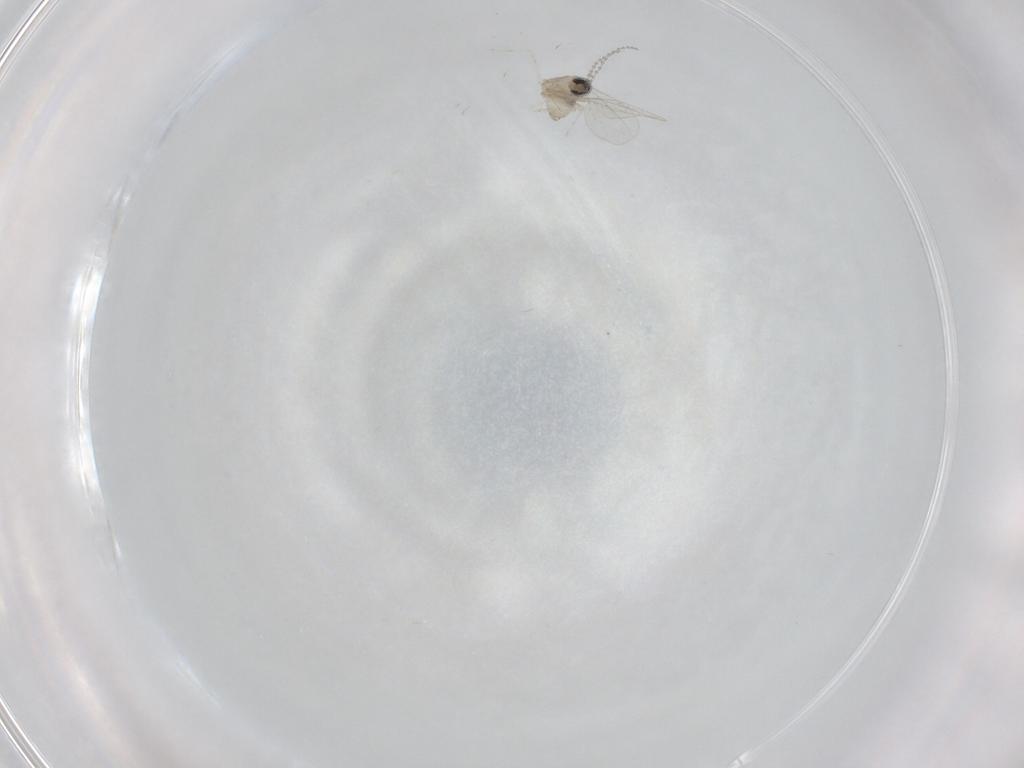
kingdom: Animalia
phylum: Arthropoda
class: Insecta
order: Diptera
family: Cecidomyiidae
